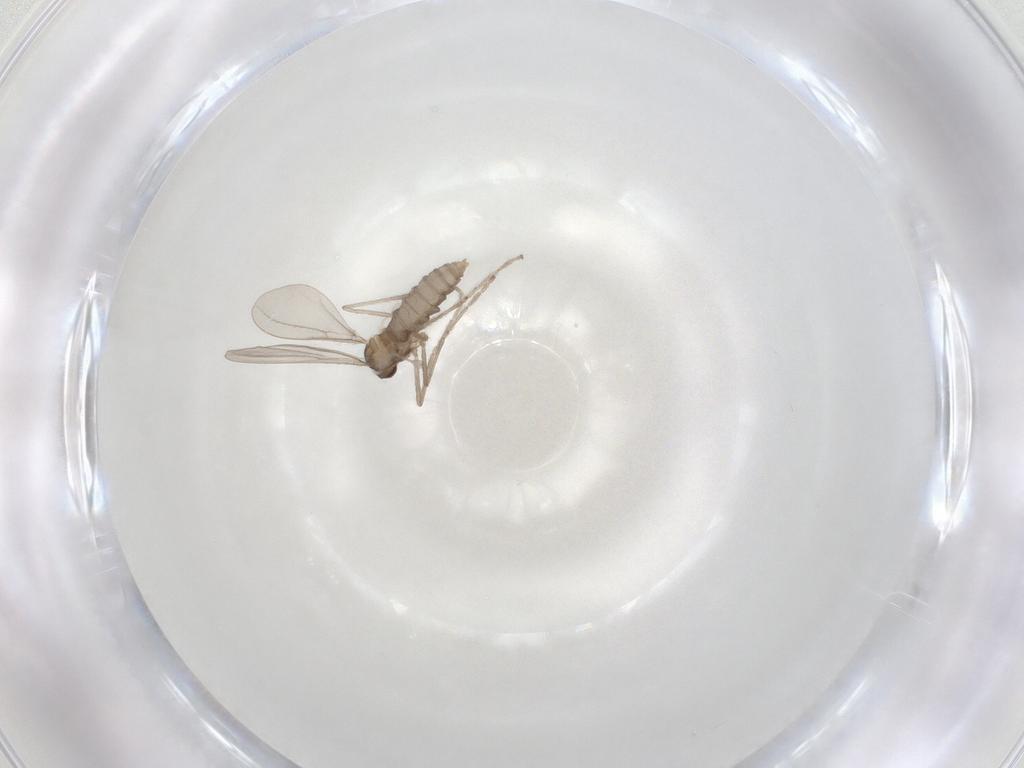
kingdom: Animalia
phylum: Arthropoda
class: Insecta
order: Diptera
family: Cecidomyiidae
